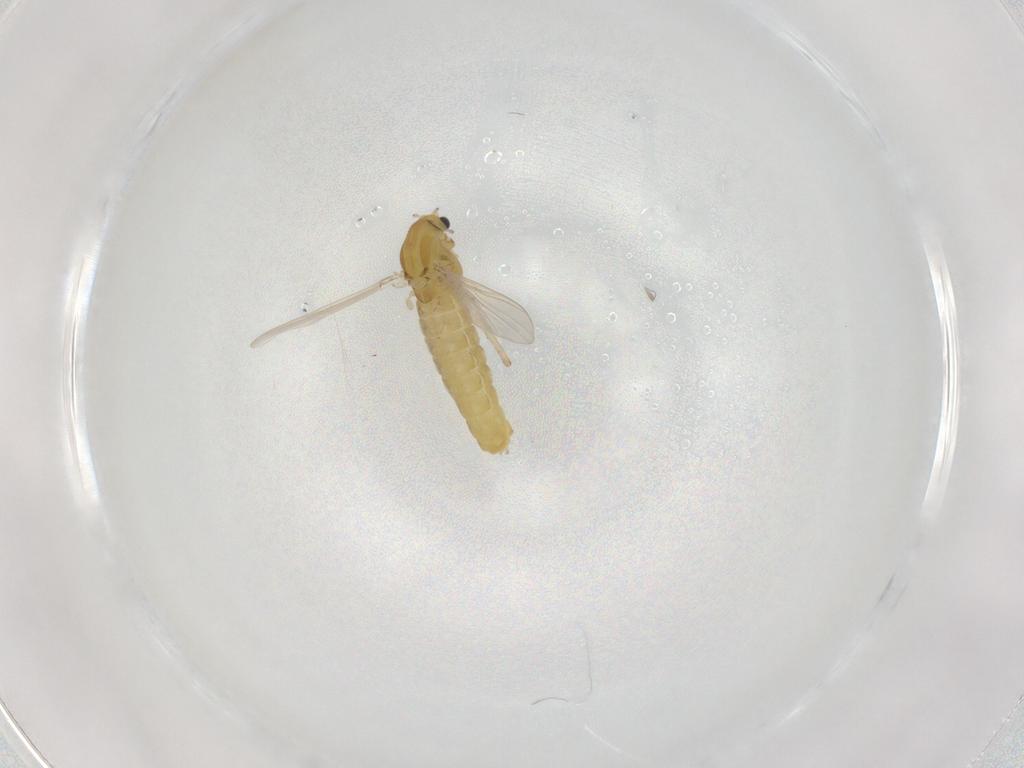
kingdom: Animalia
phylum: Arthropoda
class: Insecta
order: Diptera
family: Chironomidae
